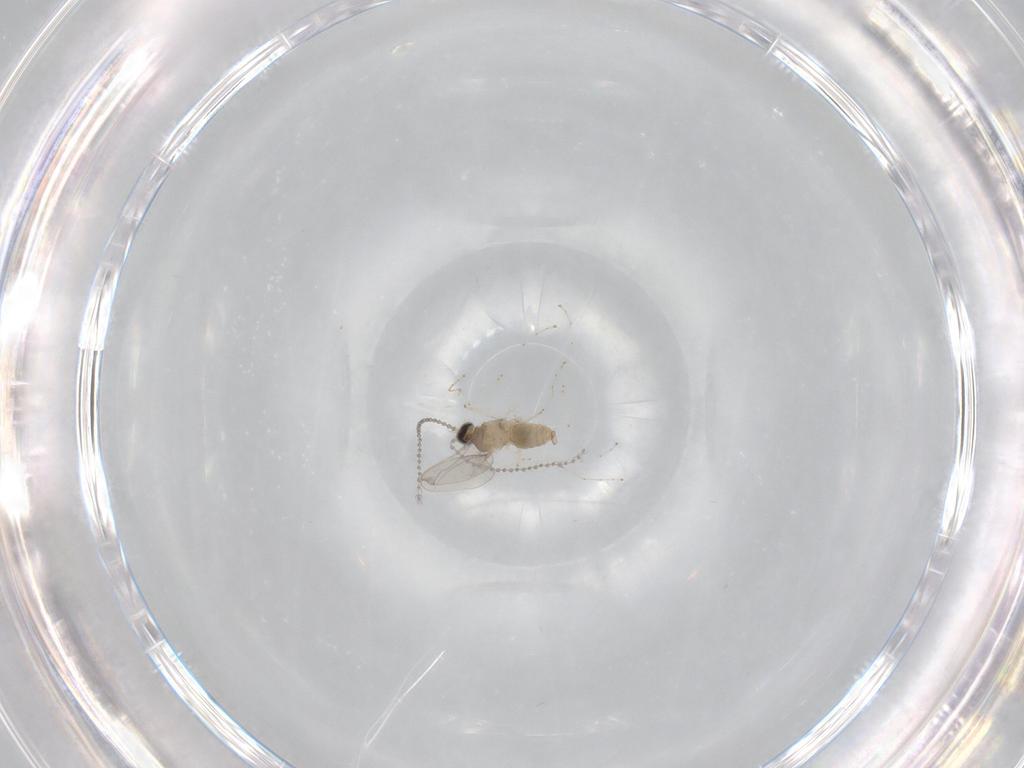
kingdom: Animalia
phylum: Arthropoda
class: Insecta
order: Diptera
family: Cecidomyiidae
